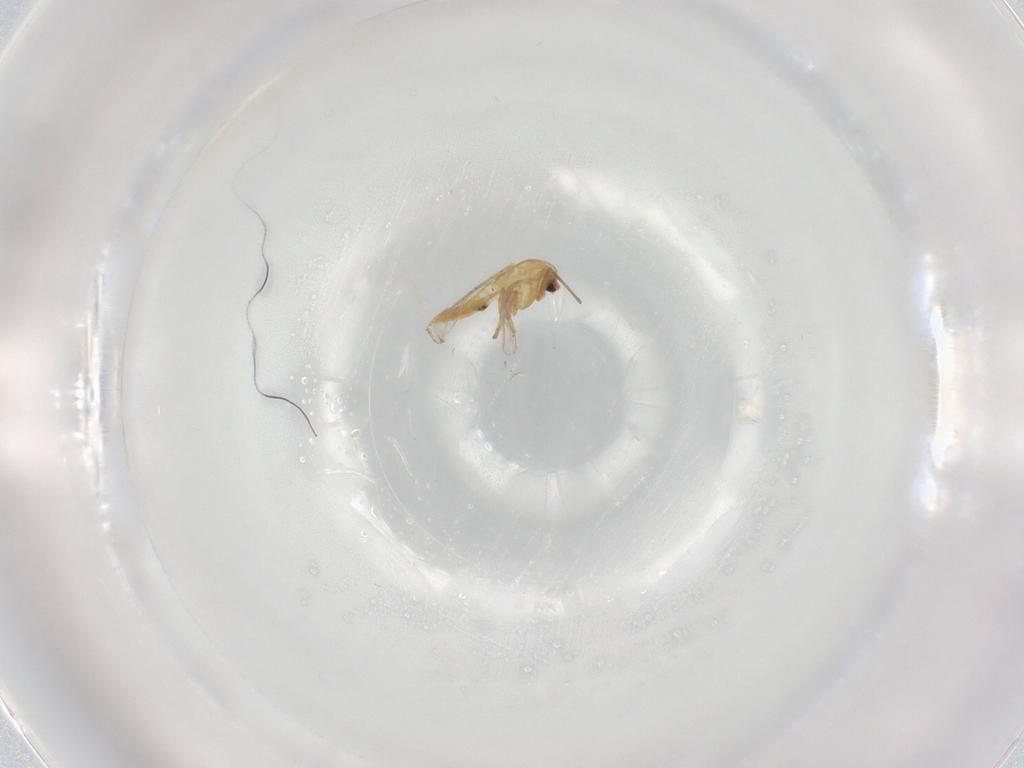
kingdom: Animalia
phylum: Arthropoda
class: Insecta
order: Diptera
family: Chironomidae
